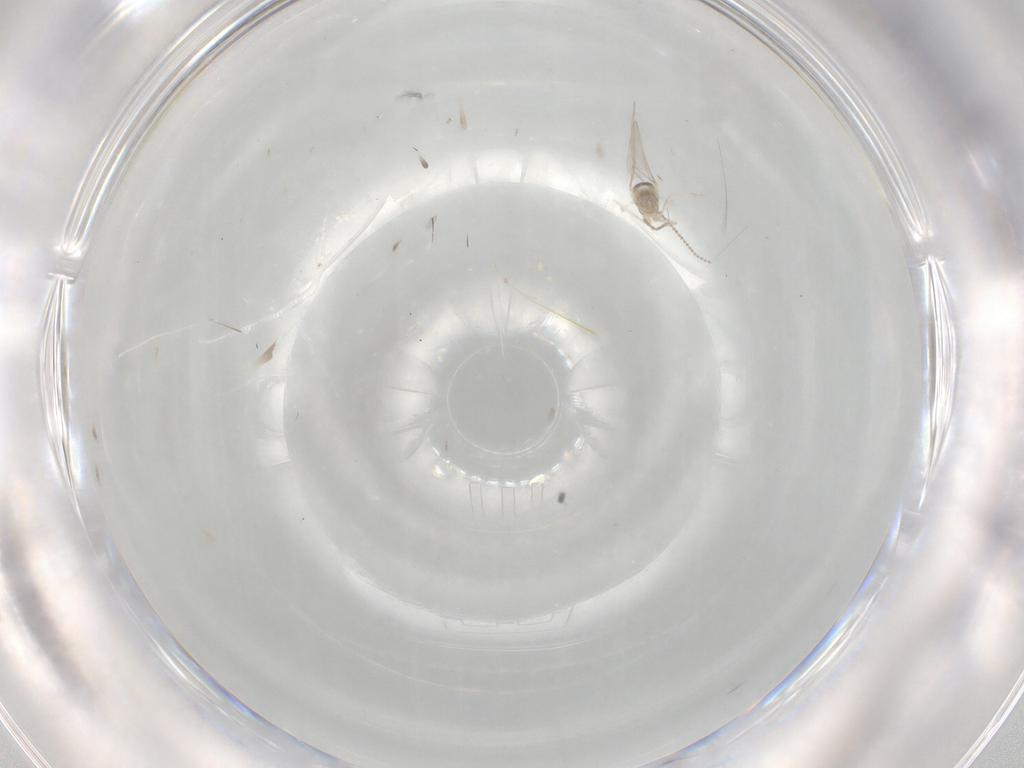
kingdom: Animalia
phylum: Arthropoda
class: Insecta
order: Diptera
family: Cecidomyiidae
